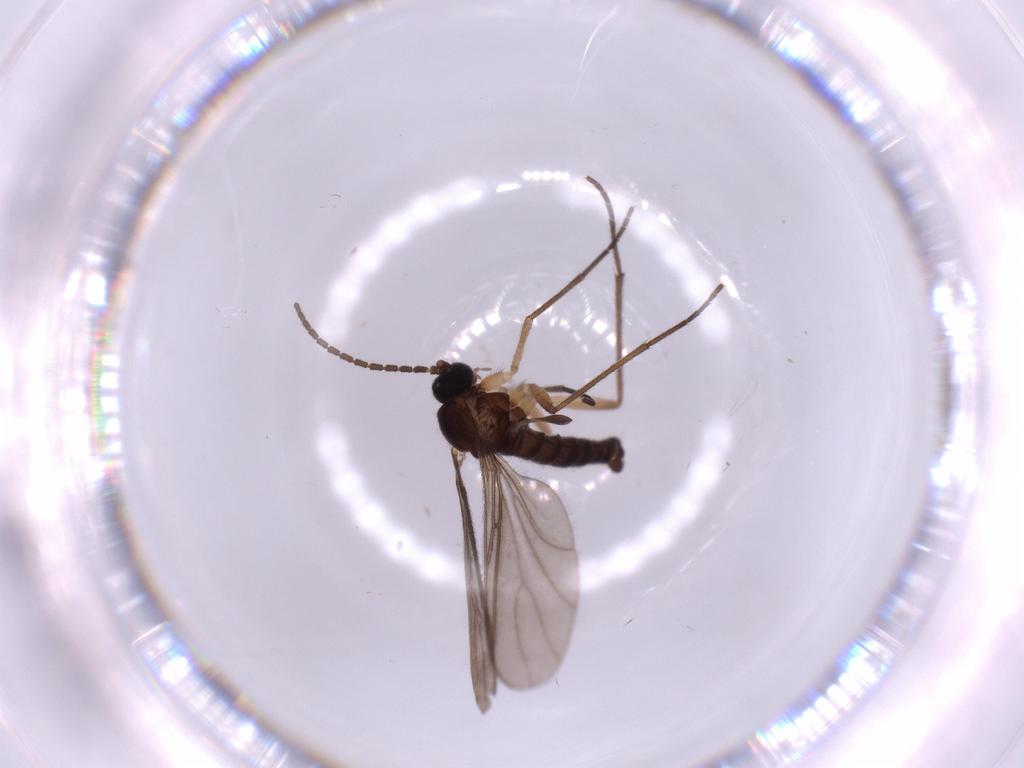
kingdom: Animalia
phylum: Arthropoda
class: Insecta
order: Diptera
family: Sciaridae
